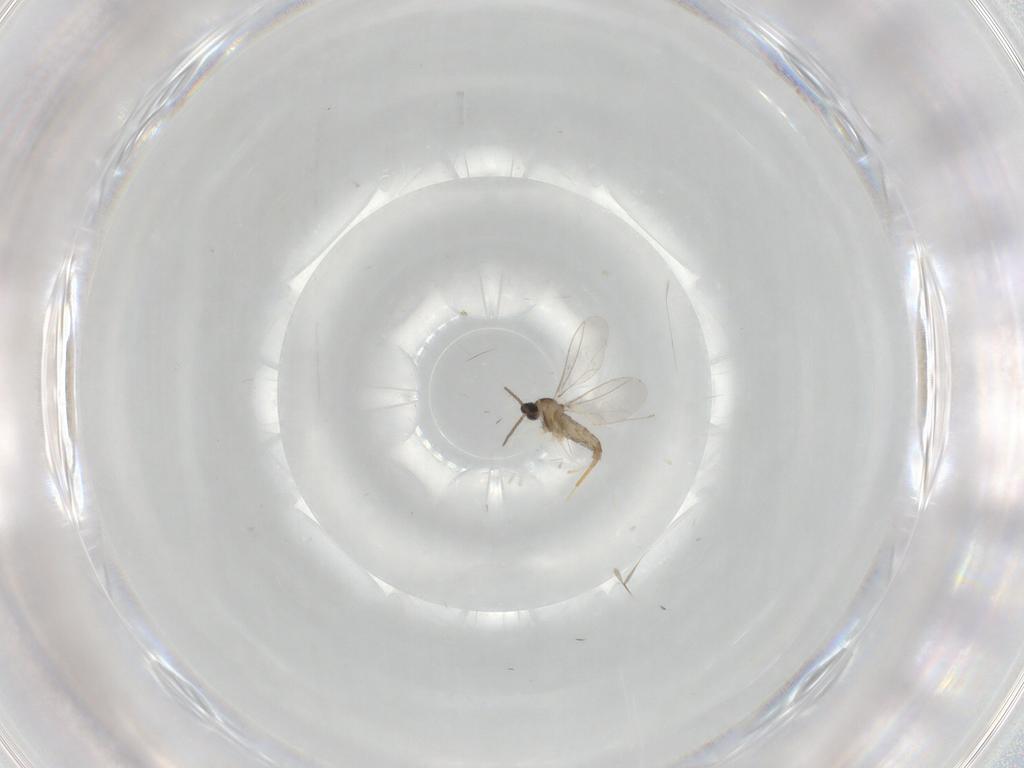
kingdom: Animalia
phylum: Arthropoda
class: Insecta
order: Diptera
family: Cecidomyiidae
